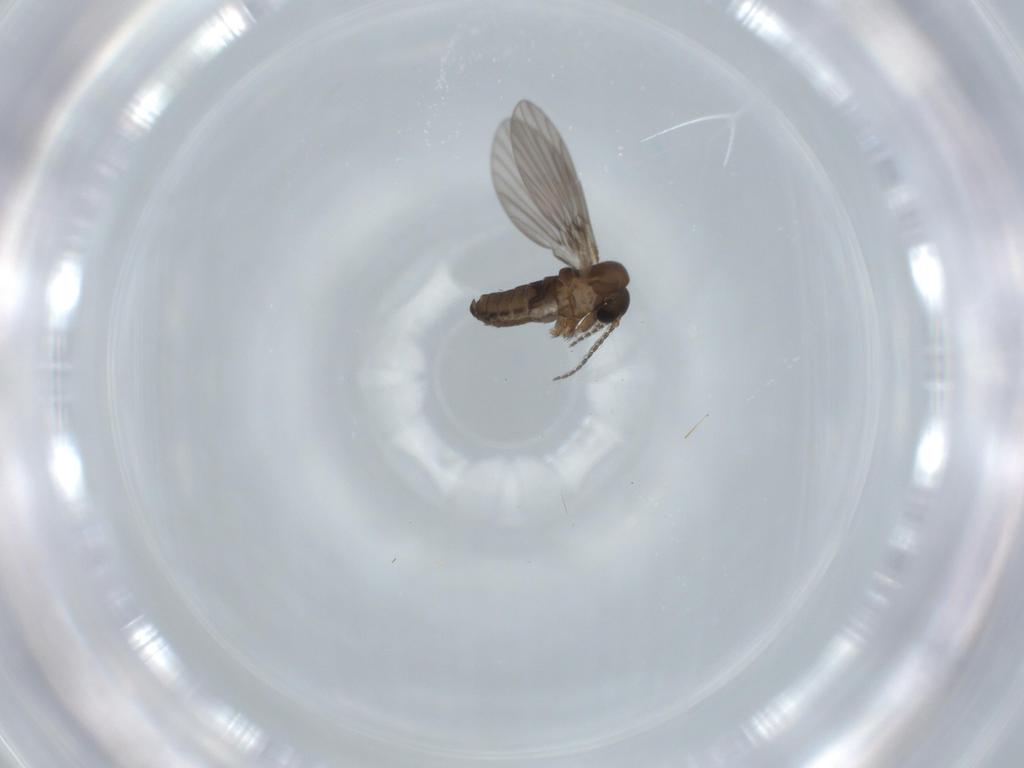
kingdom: Animalia
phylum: Arthropoda
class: Insecta
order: Diptera
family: Psychodidae
